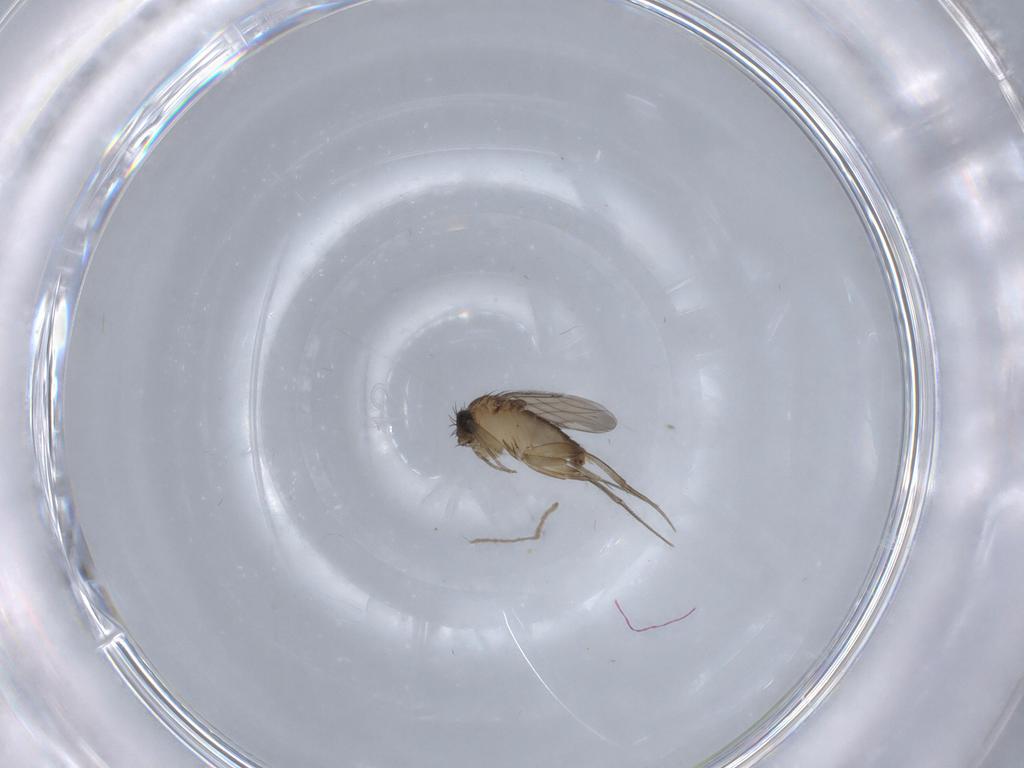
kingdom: Animalia
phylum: Arthropoda
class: Insecta
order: Diptera
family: Phoridae
